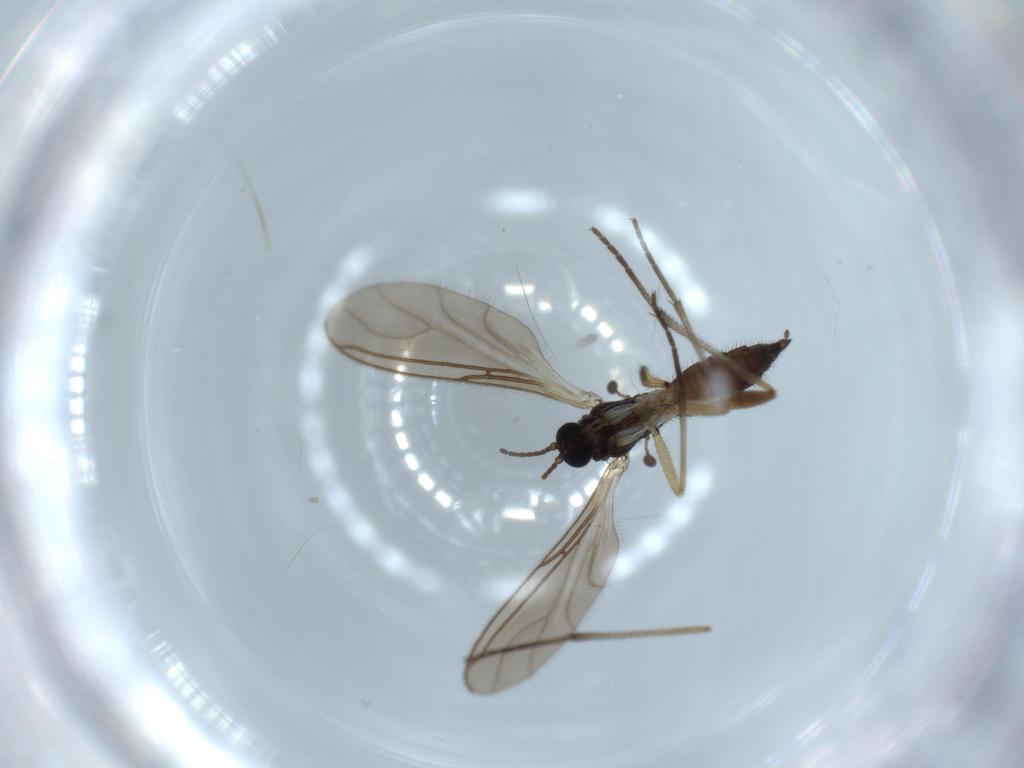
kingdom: Animalia
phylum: Arthropoda
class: Insecta
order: Diptera
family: Sciaridae
